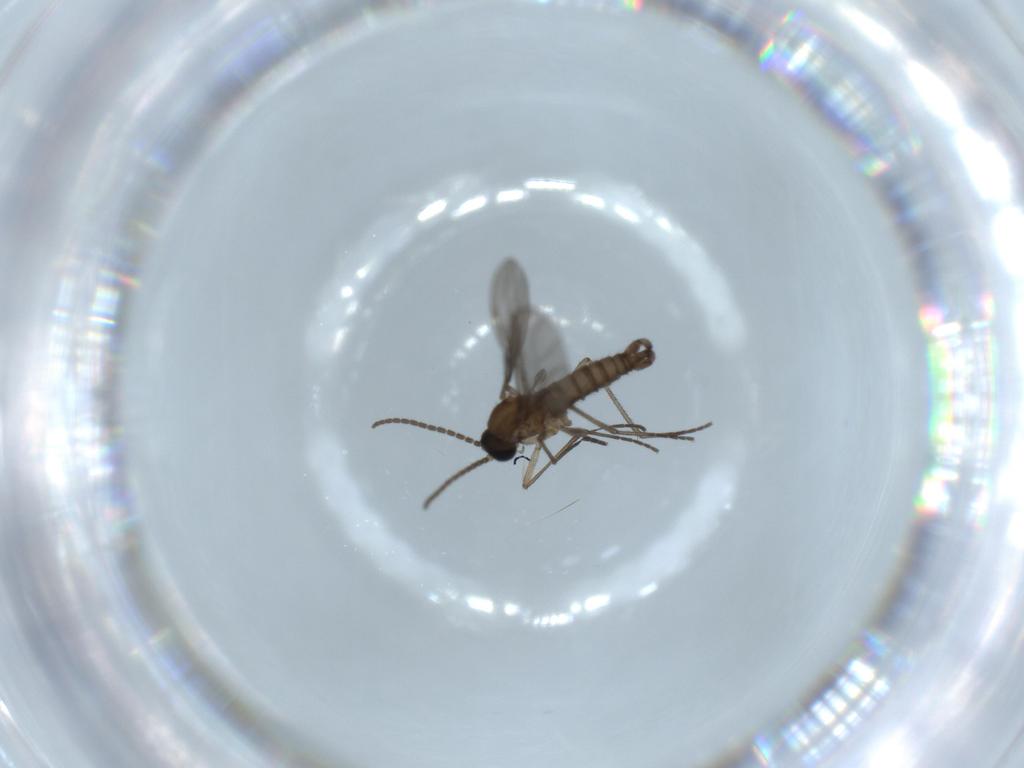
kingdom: Animalia
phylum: Arthropoda
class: Insecta
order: Diptera
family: Sciaridae
